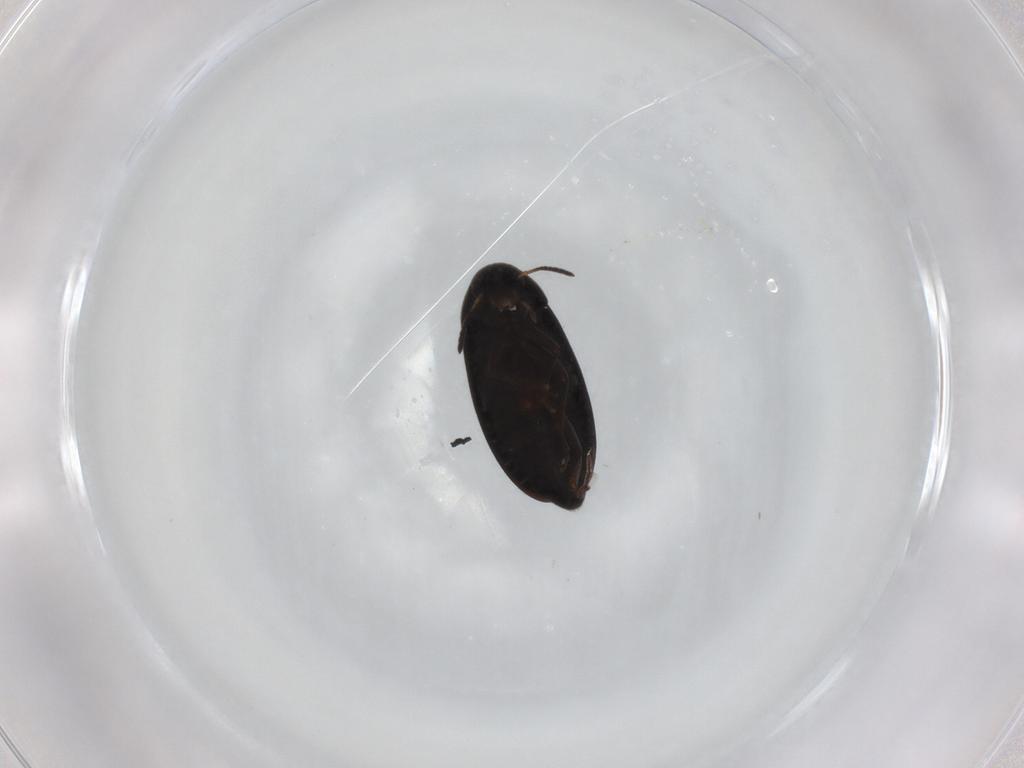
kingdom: Animalia
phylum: Arthropoda
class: Insecta
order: Coleoptera
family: Scraptiidae
